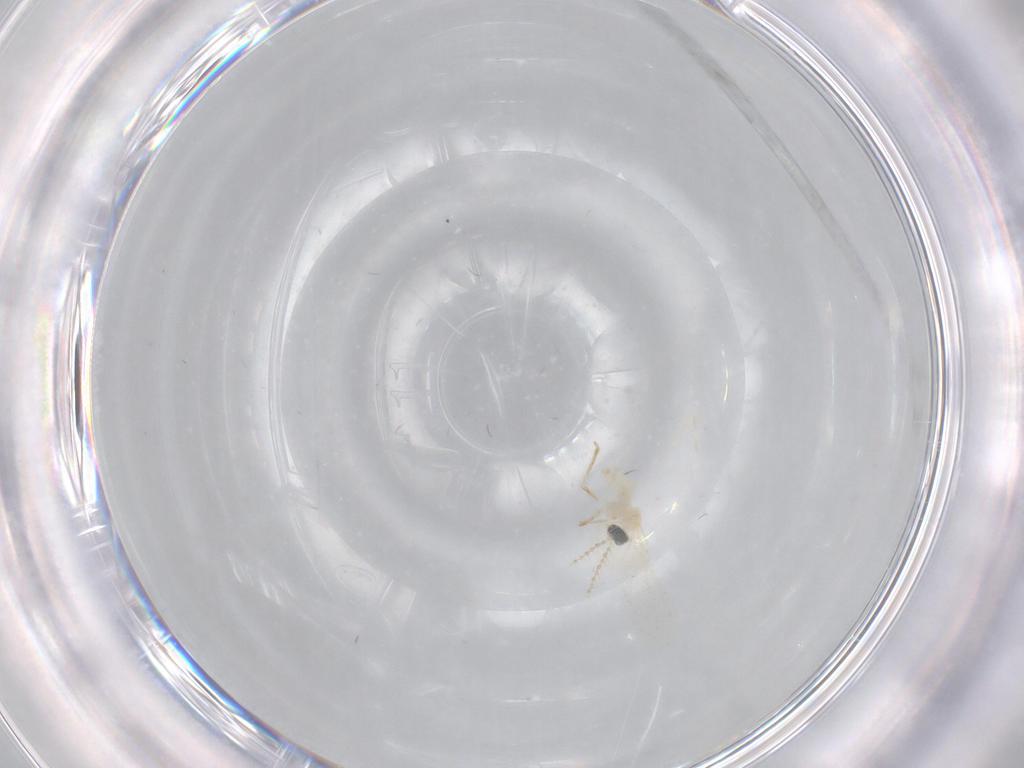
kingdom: Animalia
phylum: Arthropoda
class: Insecta
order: Diptera
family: Cecidomyiidae
